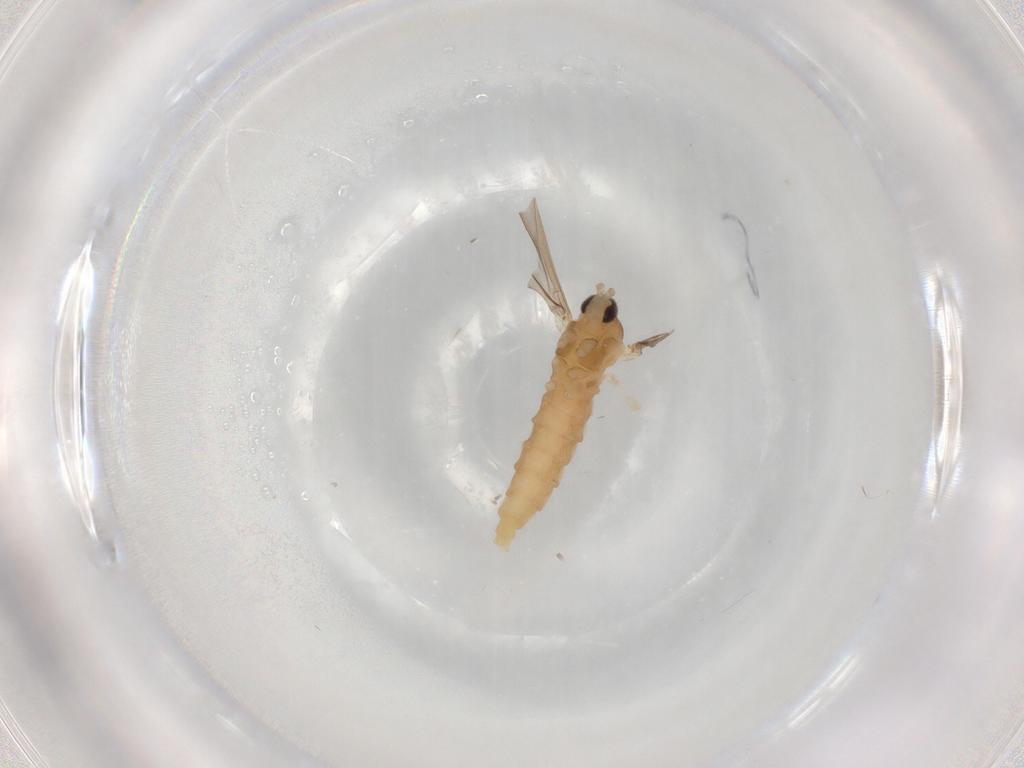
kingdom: Animalia
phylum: Arthropoda
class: Insecta
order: Diptera
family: Cecidomyiidae
